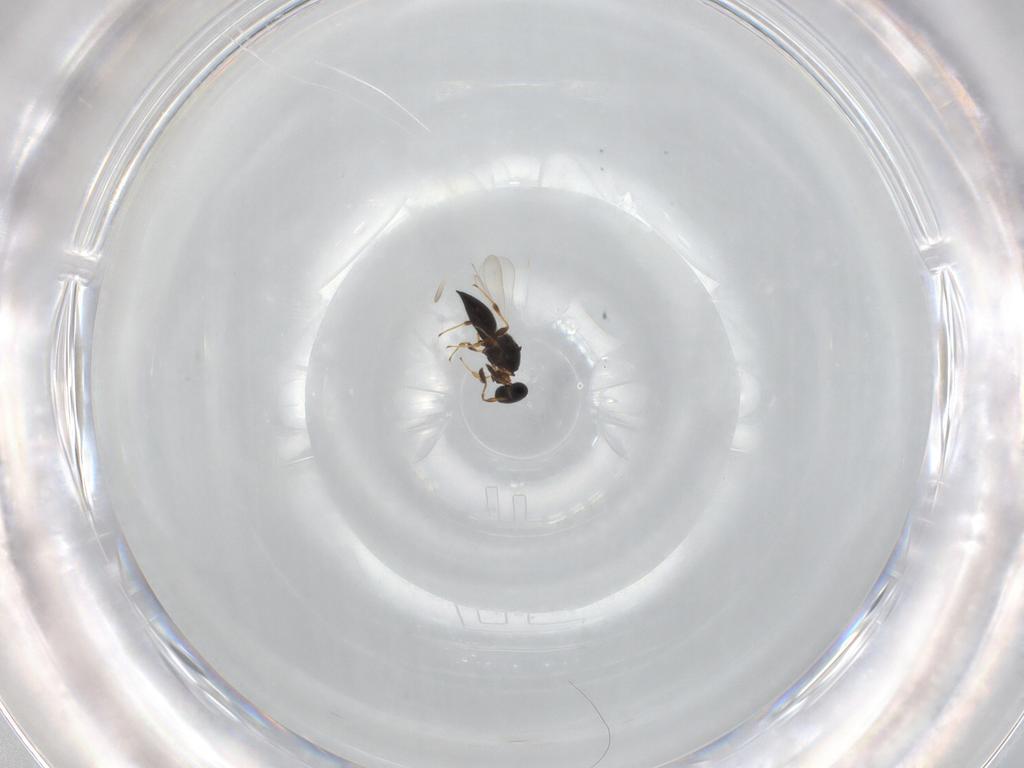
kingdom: Animalia
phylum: Arthropoda
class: Insecta
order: Hymenoptera
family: Platygastridae
